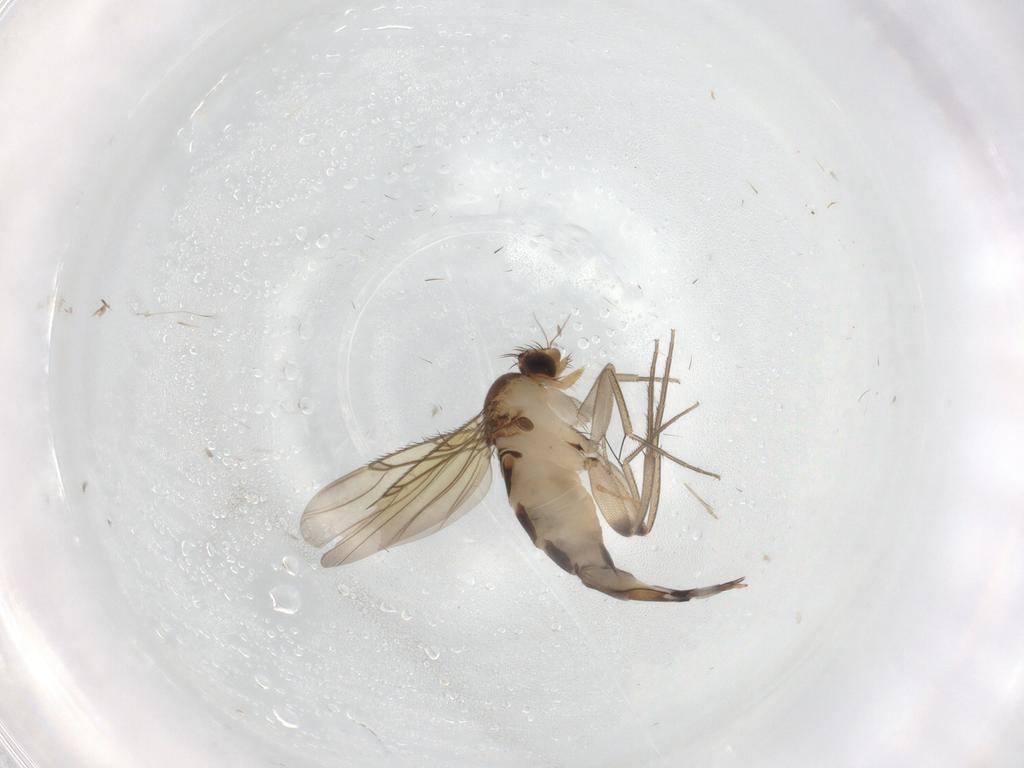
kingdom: Animalia
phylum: Arthropoda
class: Insecta
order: Diptera
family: Phoridae
